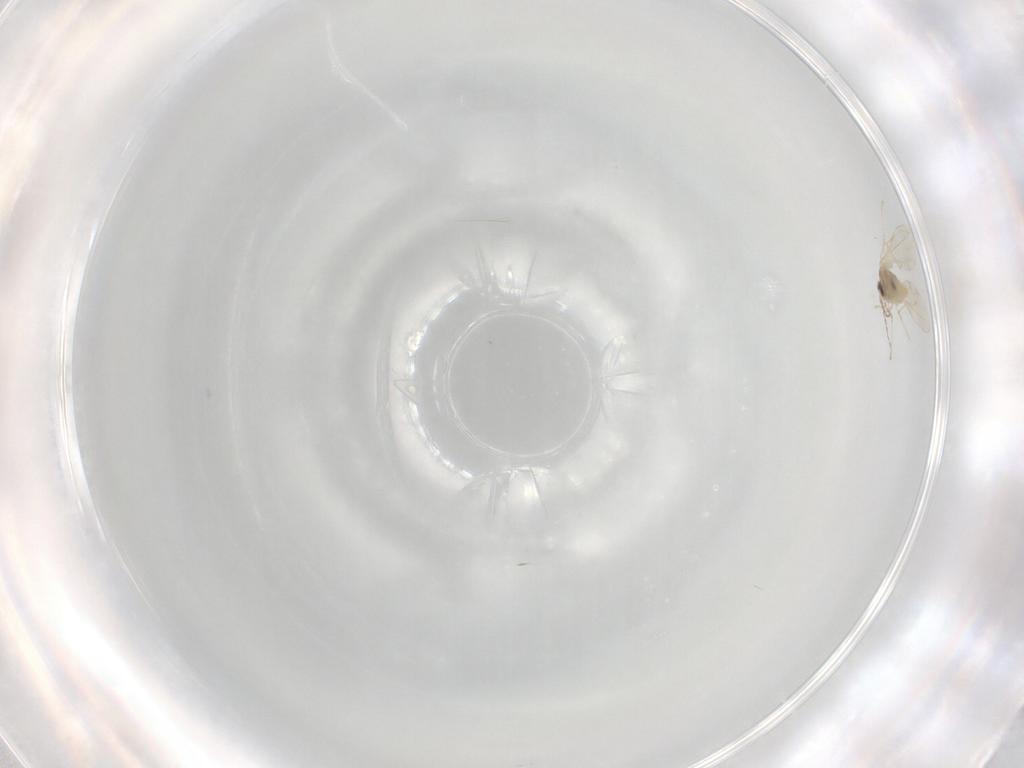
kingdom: Animalia
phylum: Arthropoda
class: Insecta
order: Diptera
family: Cecidomyiidae
